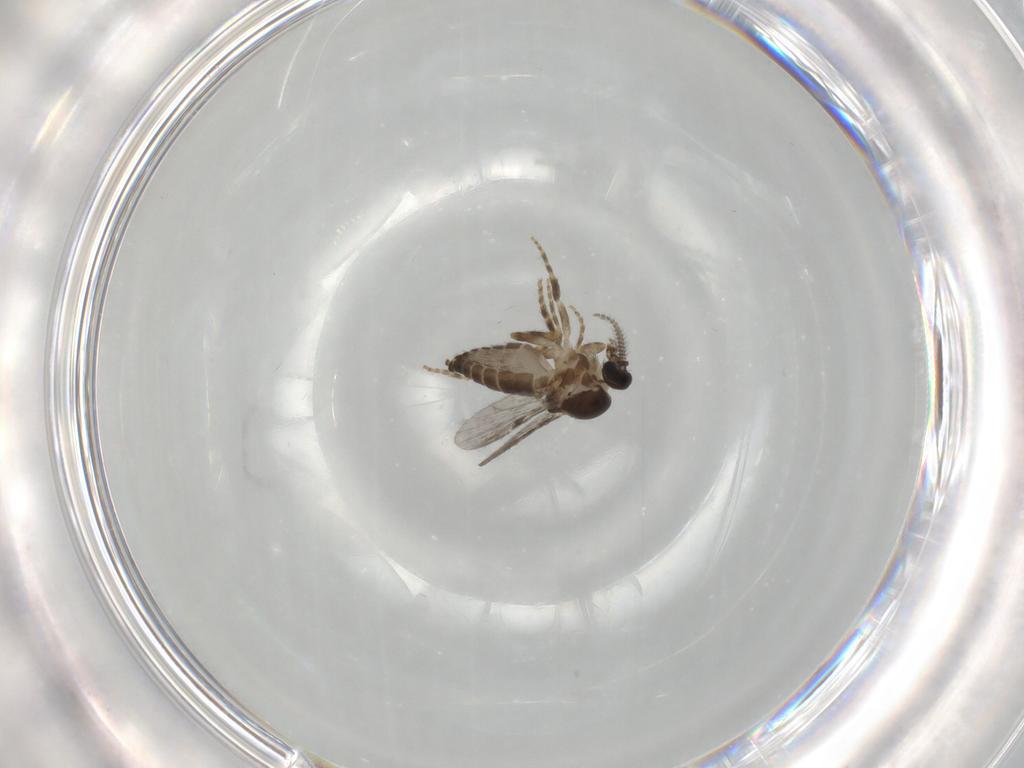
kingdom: Animalia
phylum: Arthropoda
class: Insecta
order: Diptera
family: Ceratopogonidae
